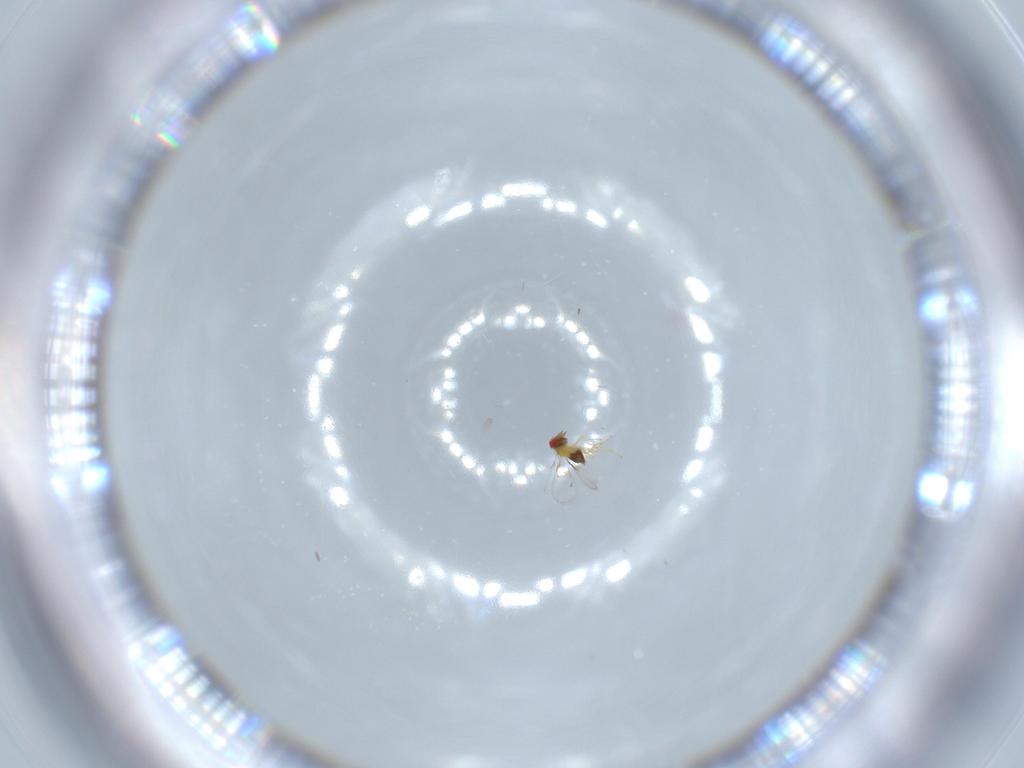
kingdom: Animalia
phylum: Arthropoda
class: Insecta
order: Hymenoptera
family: Trichogrammatidae
